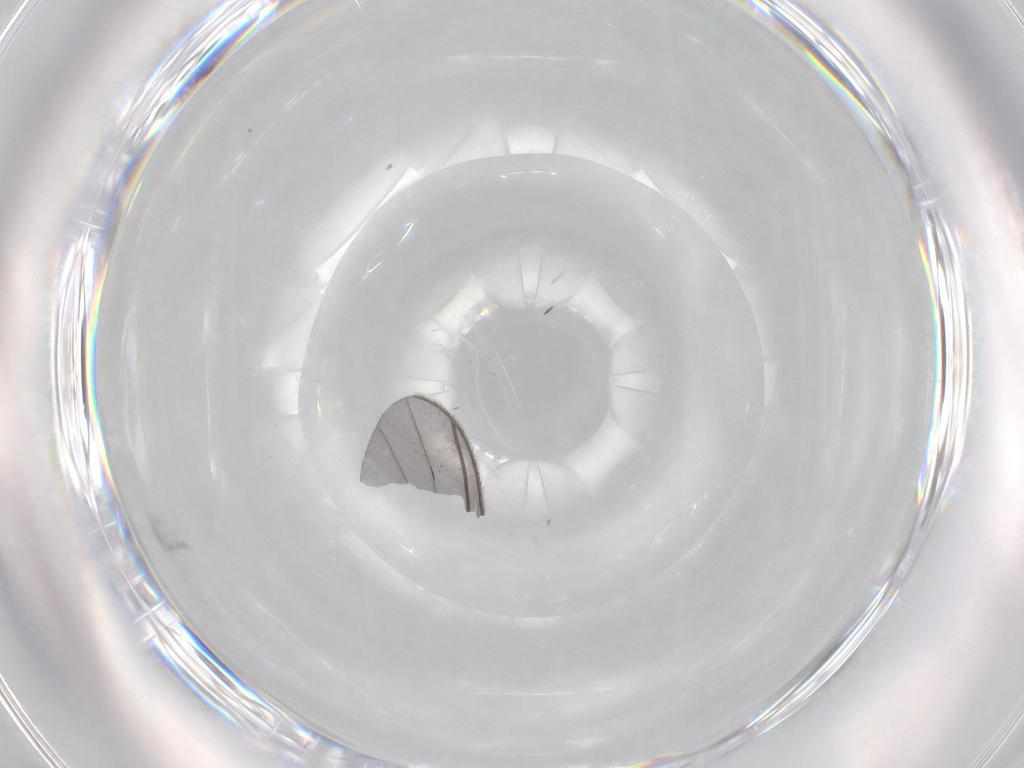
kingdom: Animalia
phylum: Arthropoda
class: Insecta
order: Diptera
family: Sciaridae
